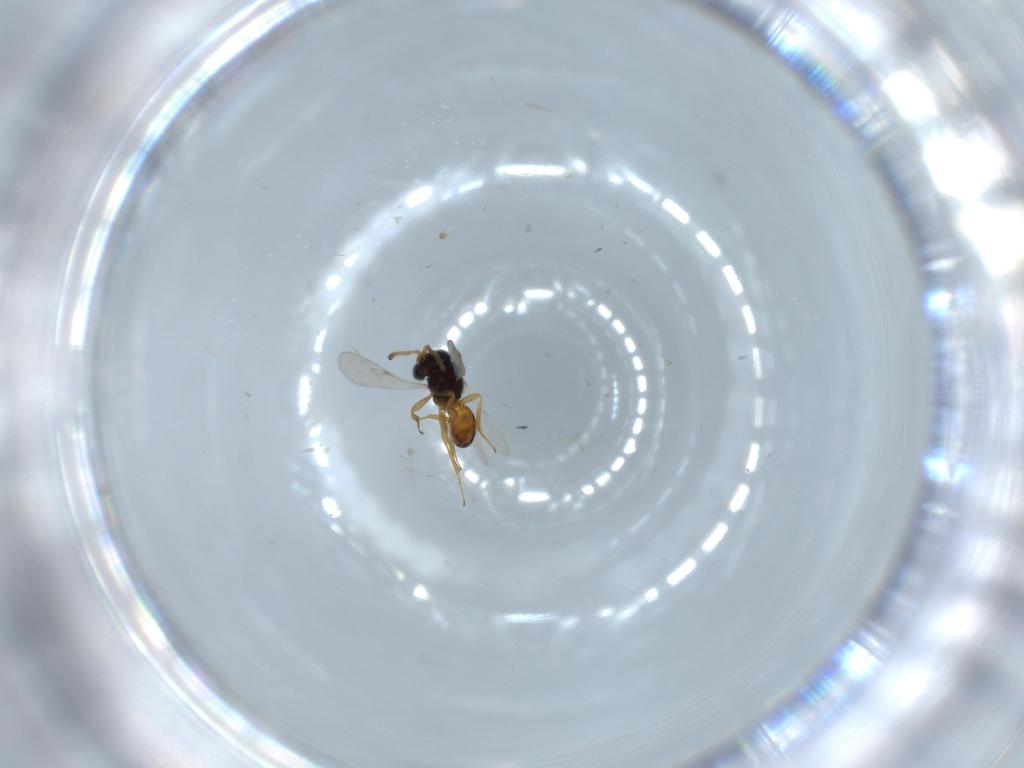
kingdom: Animalia
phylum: Arthropoda
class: Insecta
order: Hymenoptera
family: Scelionidae
